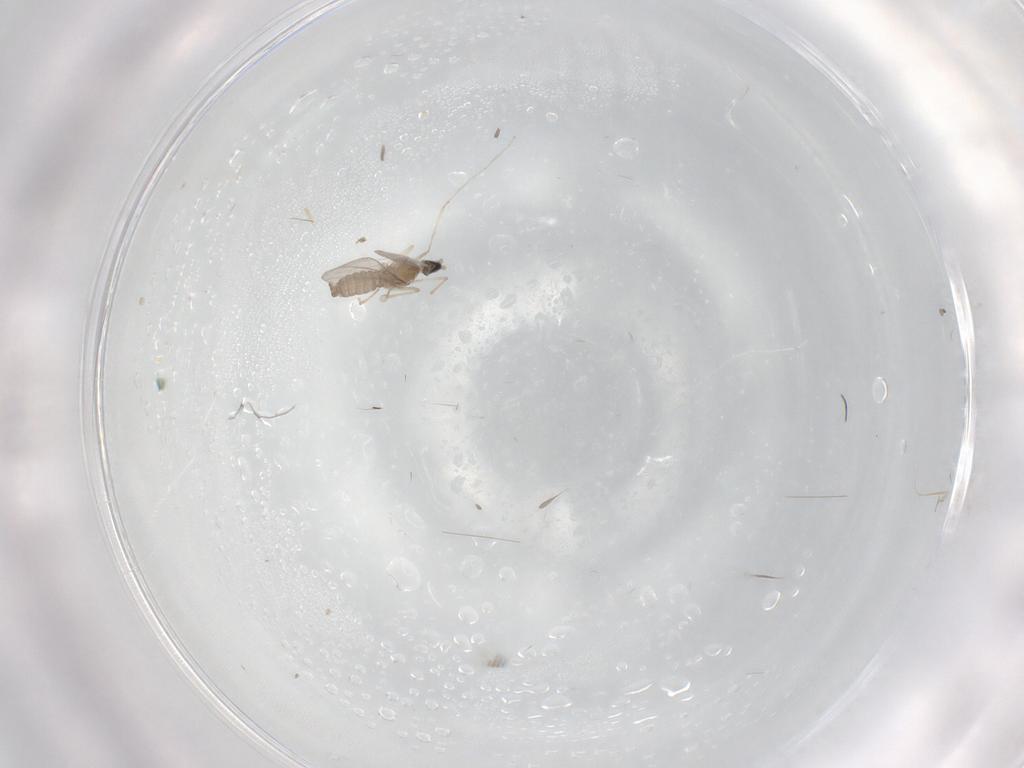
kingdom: Animalia
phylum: Arthropoda
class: Insecta
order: Diptera
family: Cecidomyiidae
